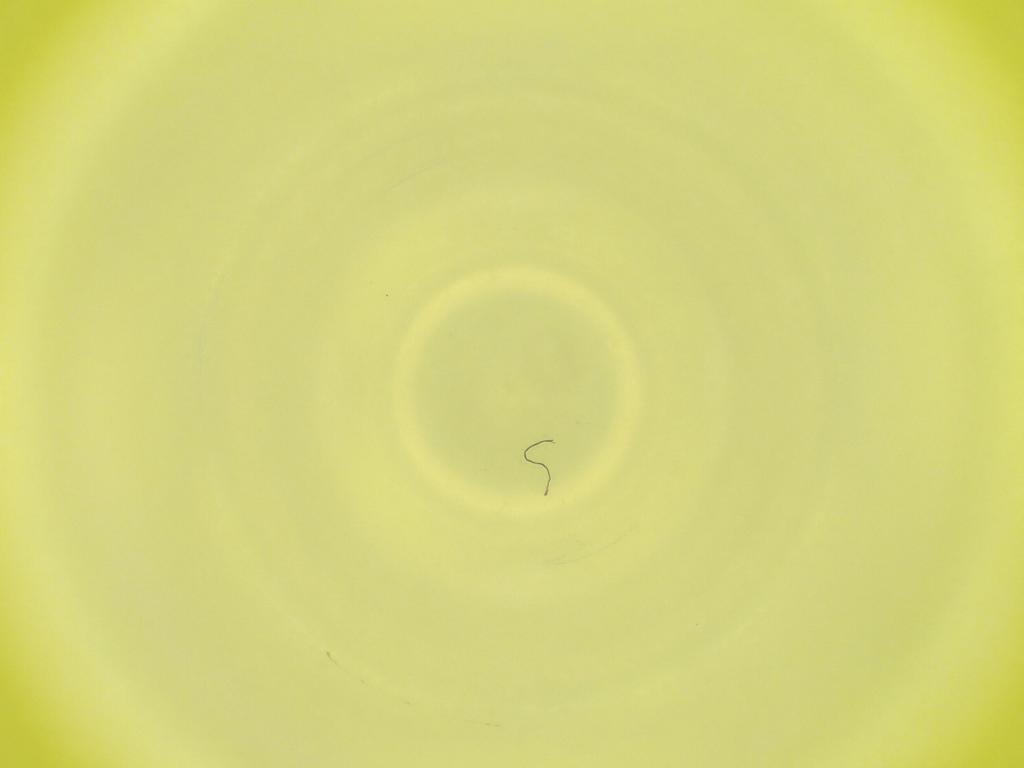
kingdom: Animalia
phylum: Arthropoda
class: Insecta
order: Diptera
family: Cecidomyiidae
